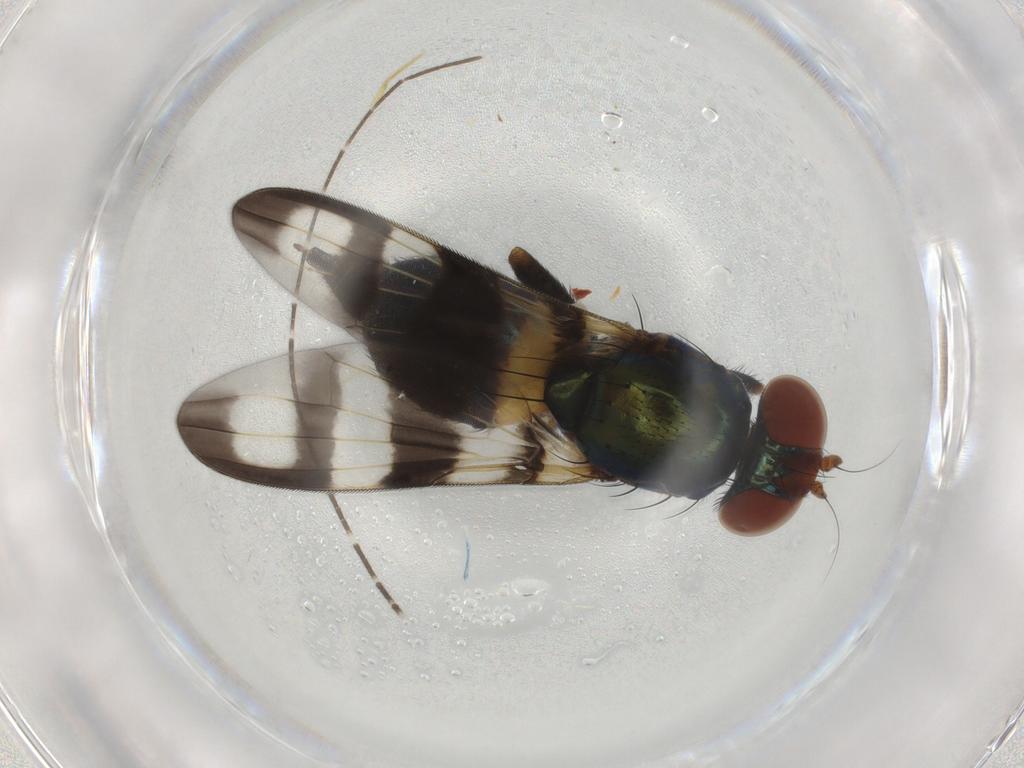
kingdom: Animalia
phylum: Arthropoda
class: Insecta
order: Diptera
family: Ulidiidae
